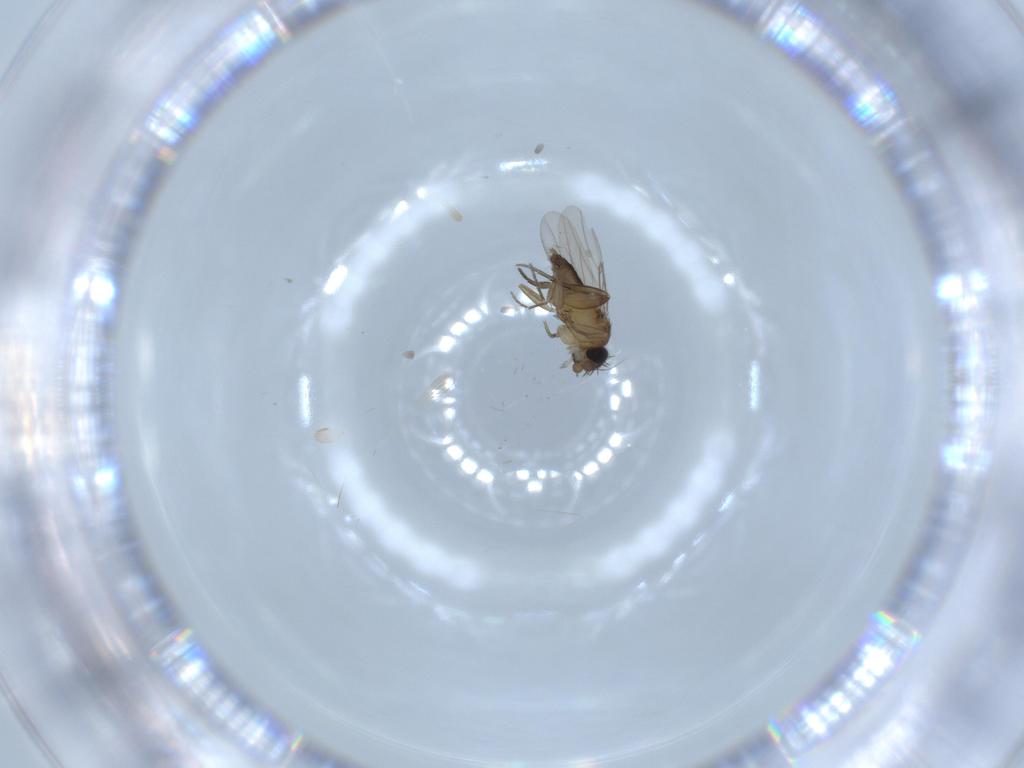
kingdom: Animalia
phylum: Arthropoda
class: Insecta
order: Diptera
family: Phoridae
